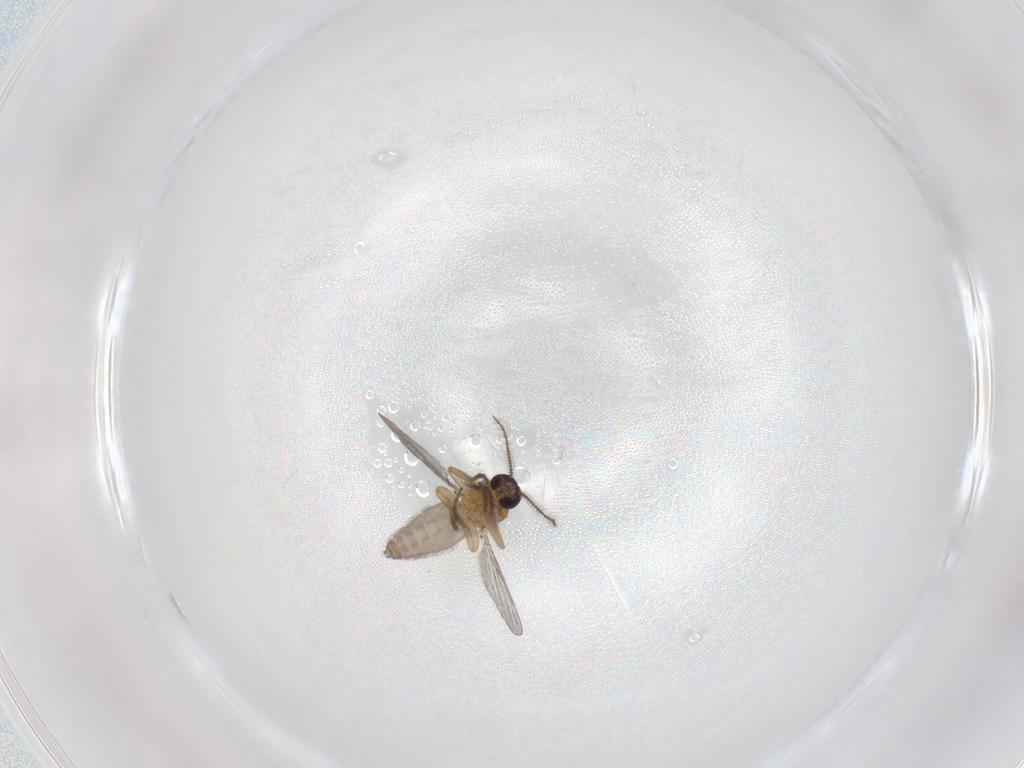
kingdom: Animalia
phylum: Arthropoda
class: Insecta
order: Diptera
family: Ceratopogonidae
